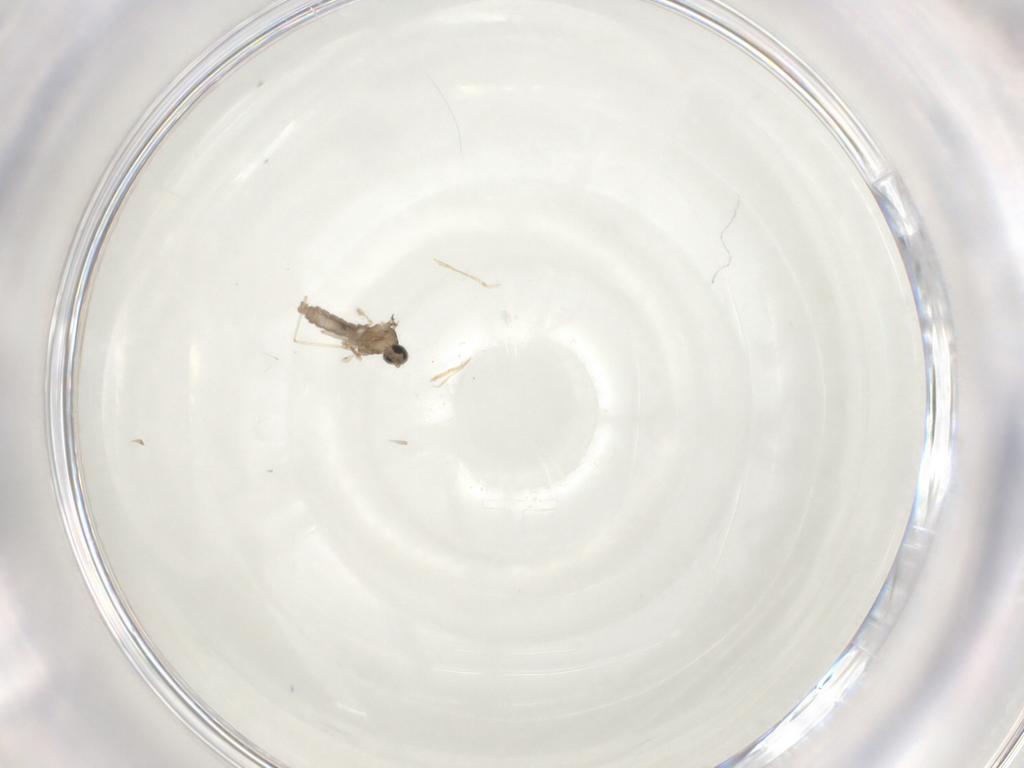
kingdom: Animalia
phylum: Arthropoda
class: Insecta
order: Diptera
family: Cecidomyiidae
